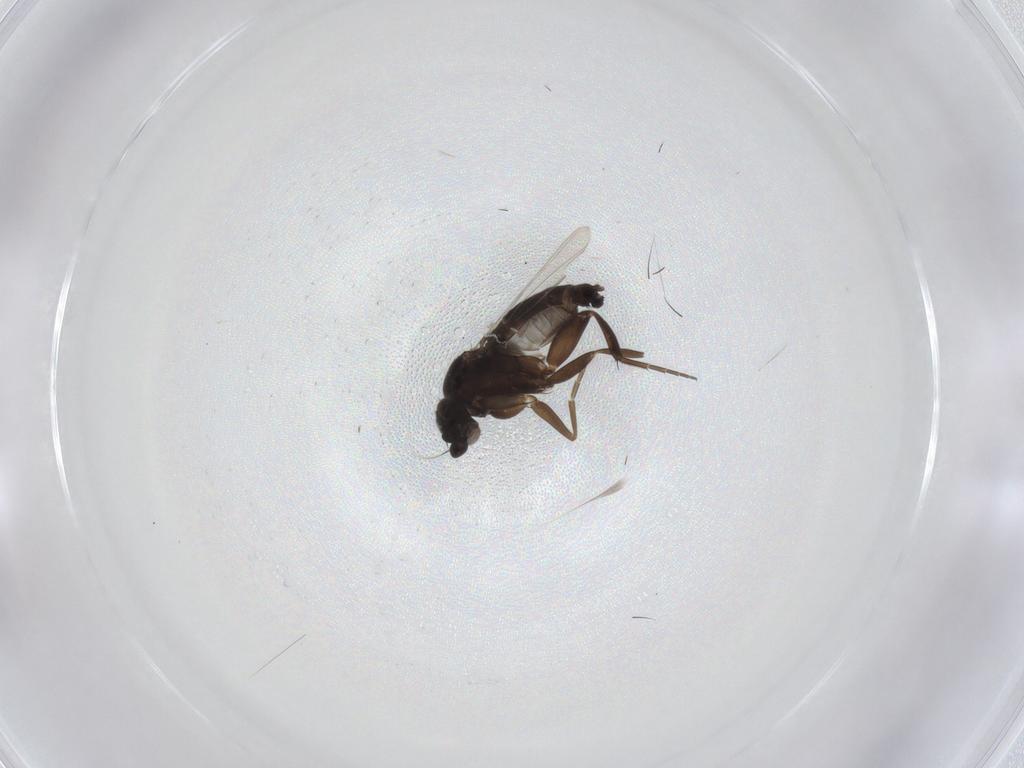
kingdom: Animalia
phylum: Arthropoda
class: Insecta
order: Diptera
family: Phoridae
